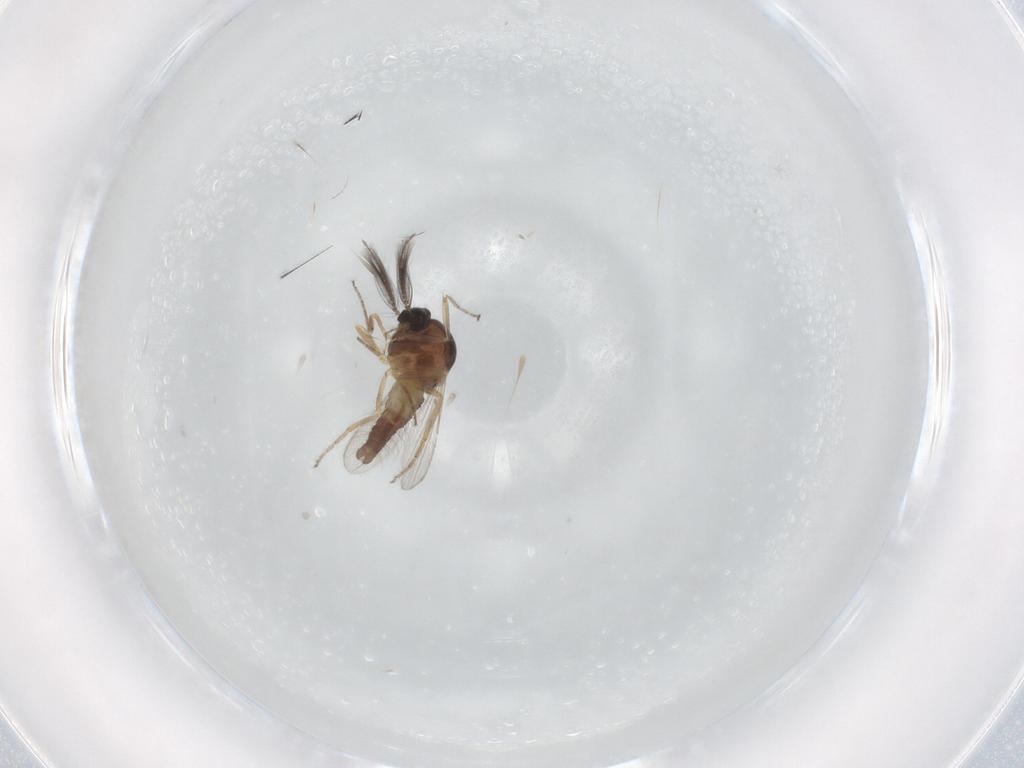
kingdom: Animalia
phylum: Arthropoda
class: Insecta
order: Diptera
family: Ceratopogonidae
